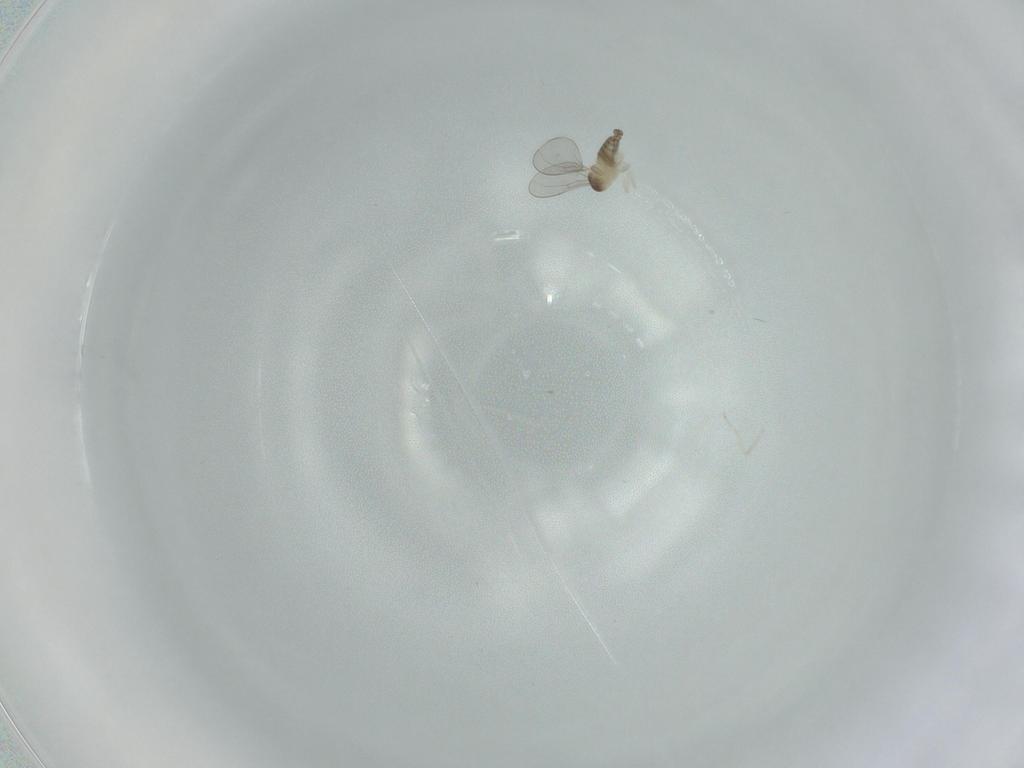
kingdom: Animalia
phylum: Arthropoda
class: Insecta
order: Diptera
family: Cecidomyiidae
